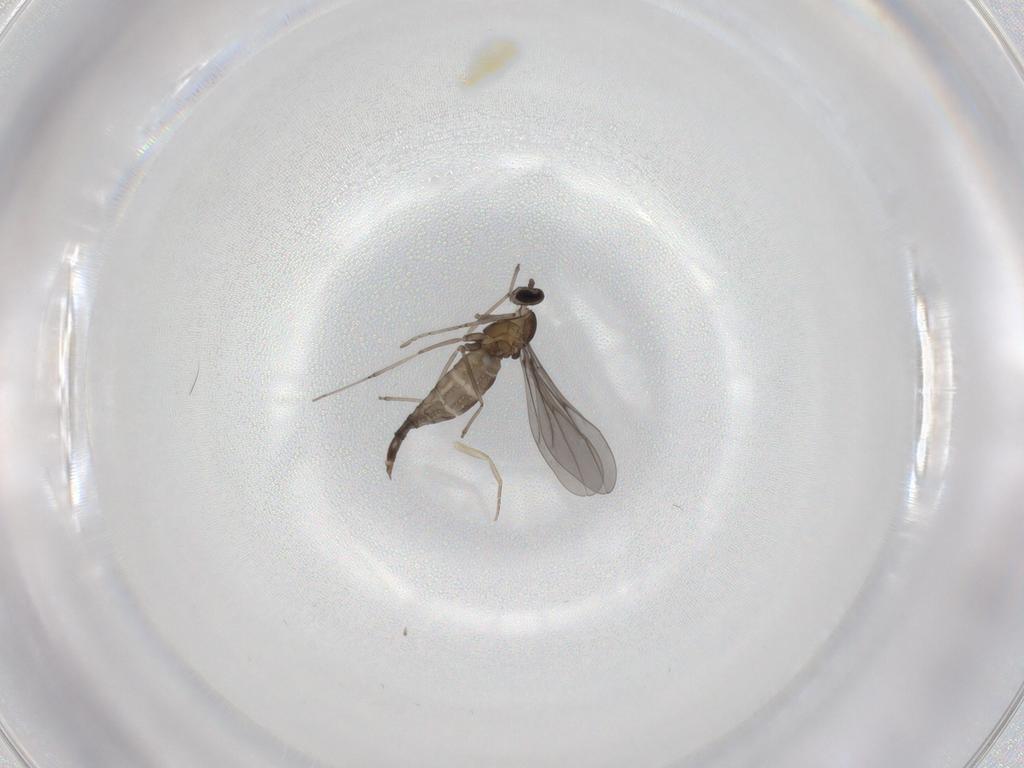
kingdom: Animalia
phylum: Arthropoda
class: Insecta
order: Diptera
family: Cecidomyiidae
